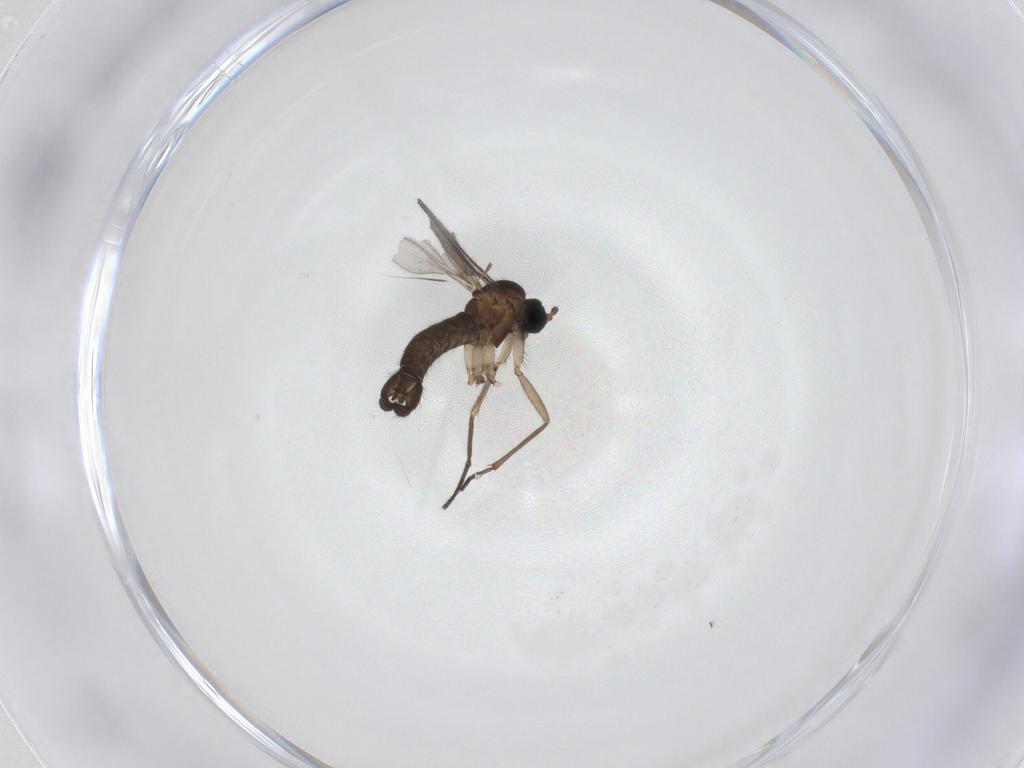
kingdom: Animalia
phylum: Arthropoda
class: Insecta
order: Diptera
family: Sciaridae
